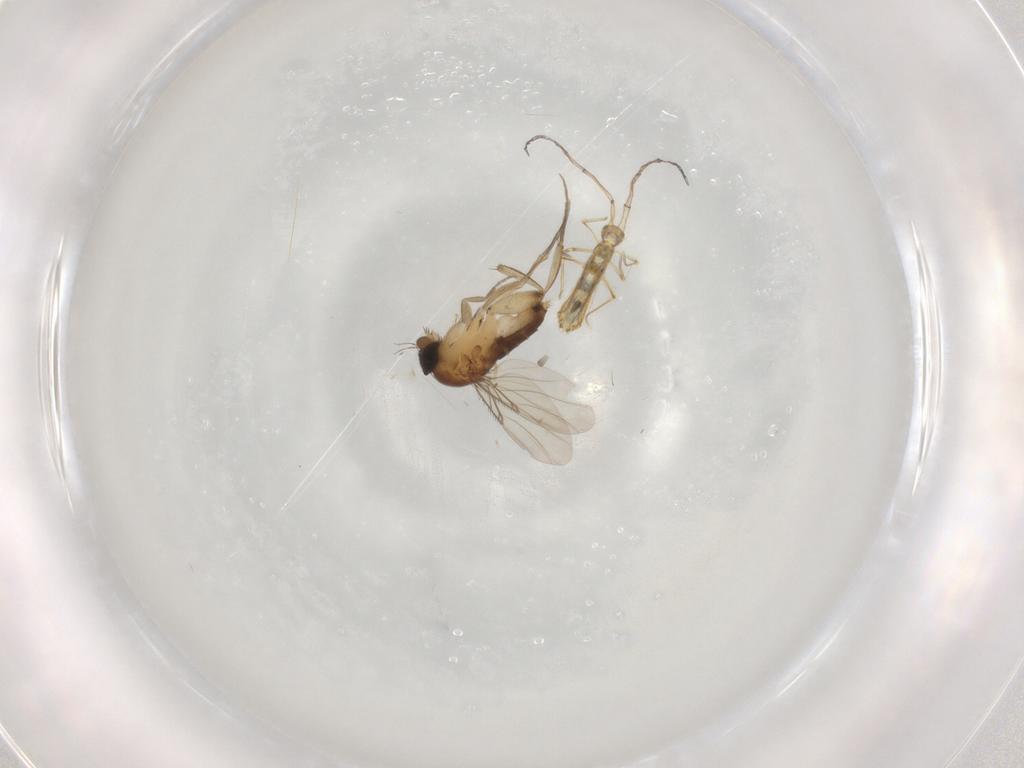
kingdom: Animalia
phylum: Arthropoda
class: Insecta
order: Diptera
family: Phoridae
